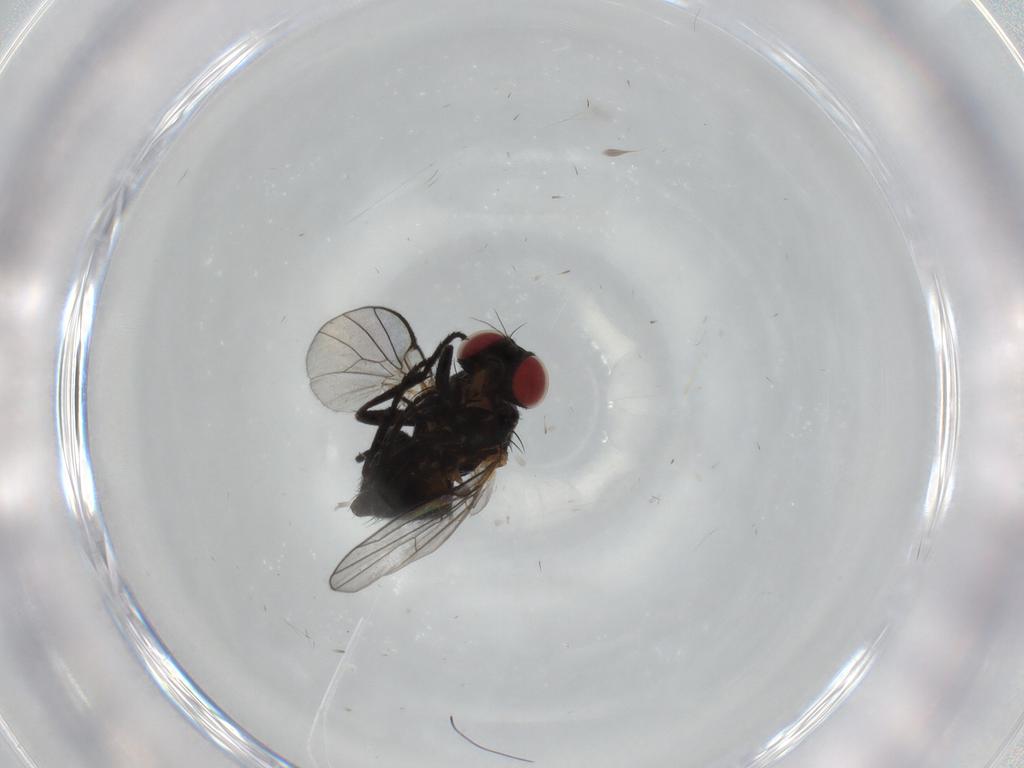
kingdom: Animalia
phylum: Arthropoda
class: Insecta
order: Diptera
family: Agromyzidae
